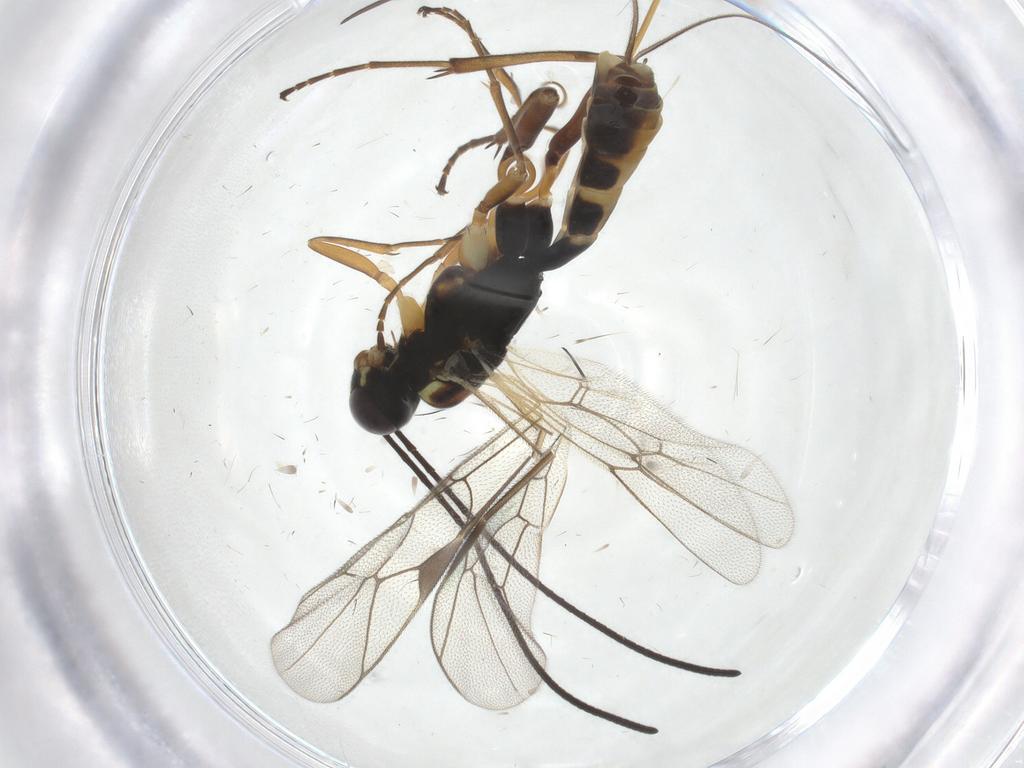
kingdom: Animalia
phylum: Arthropoda
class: Insecta
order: Hymenoptera
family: Ichneumonidae
